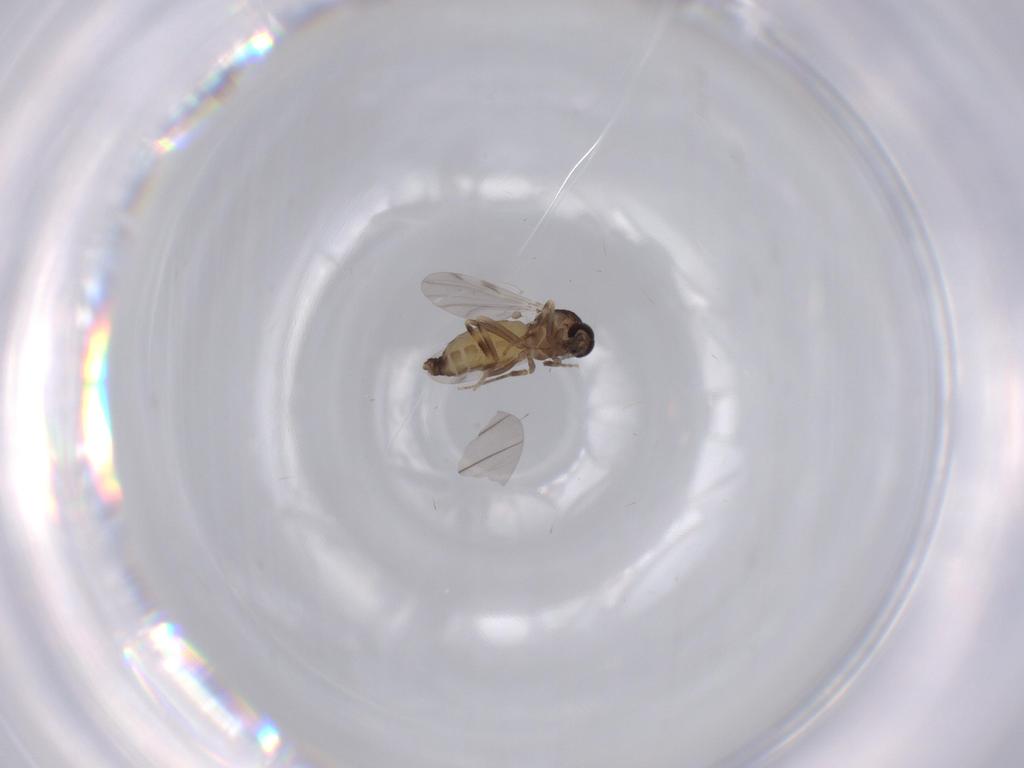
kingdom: Animalia
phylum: Arthropoda
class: Insecta
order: Diptera
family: Ceratopogonidae
